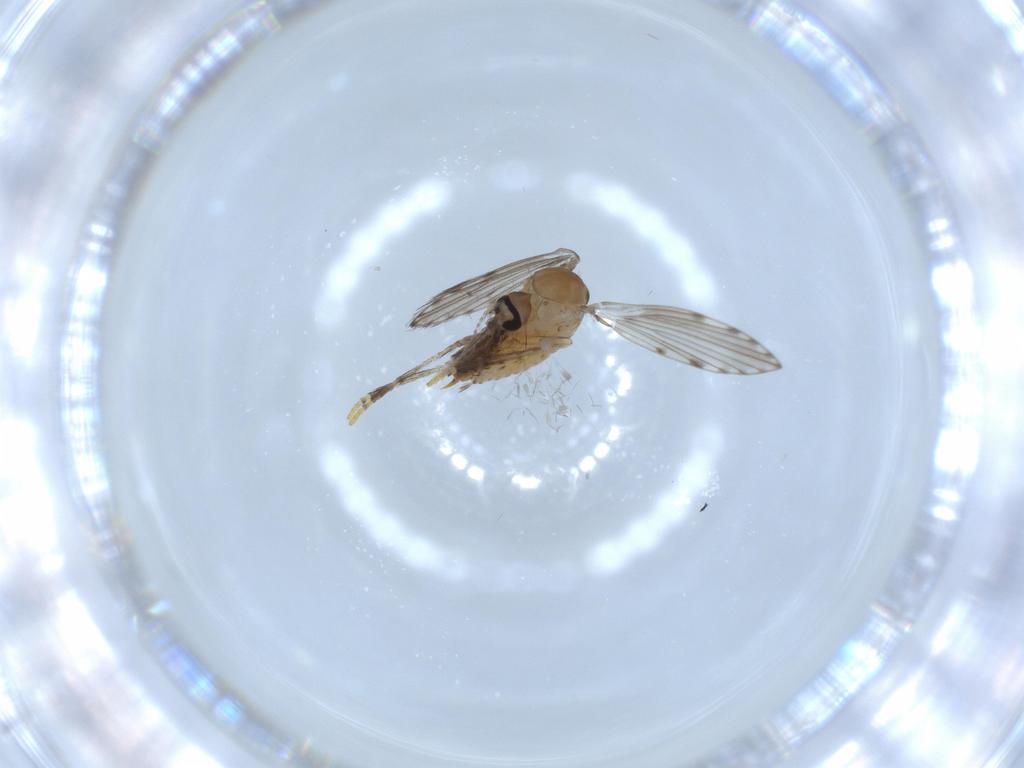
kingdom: Animalia
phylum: Arthropoda
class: Insecta
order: Diptera
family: Psychodidae
